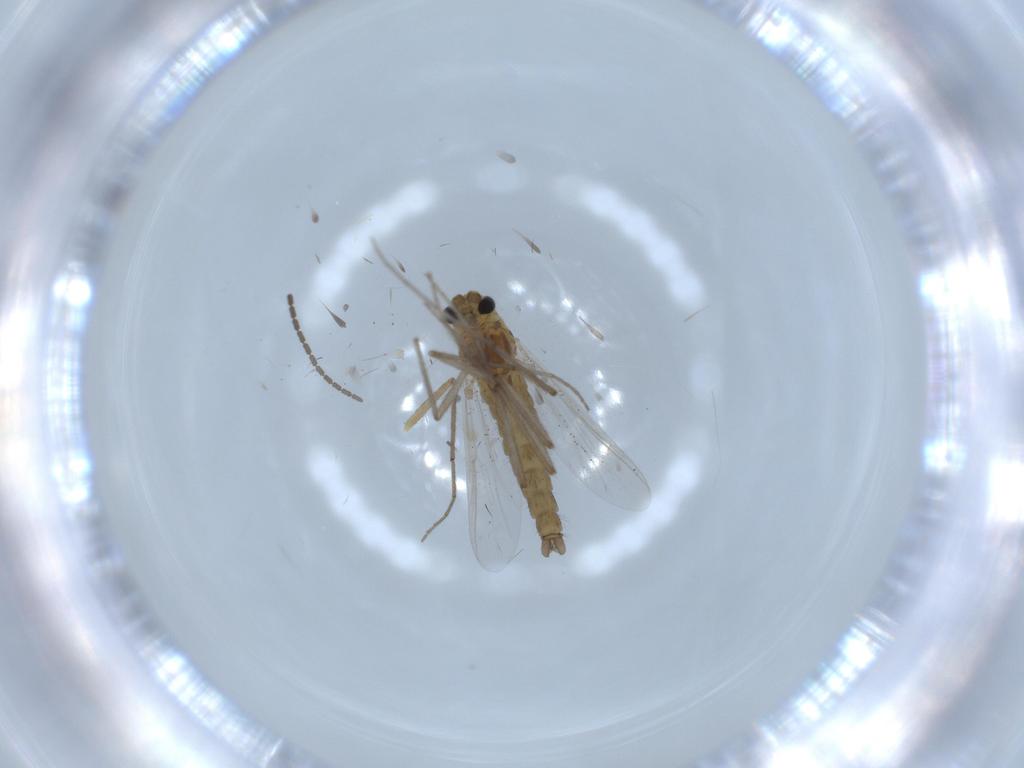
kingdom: Animalia
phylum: Arthropoda
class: Insecta
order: Diptera
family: Chironomidae
